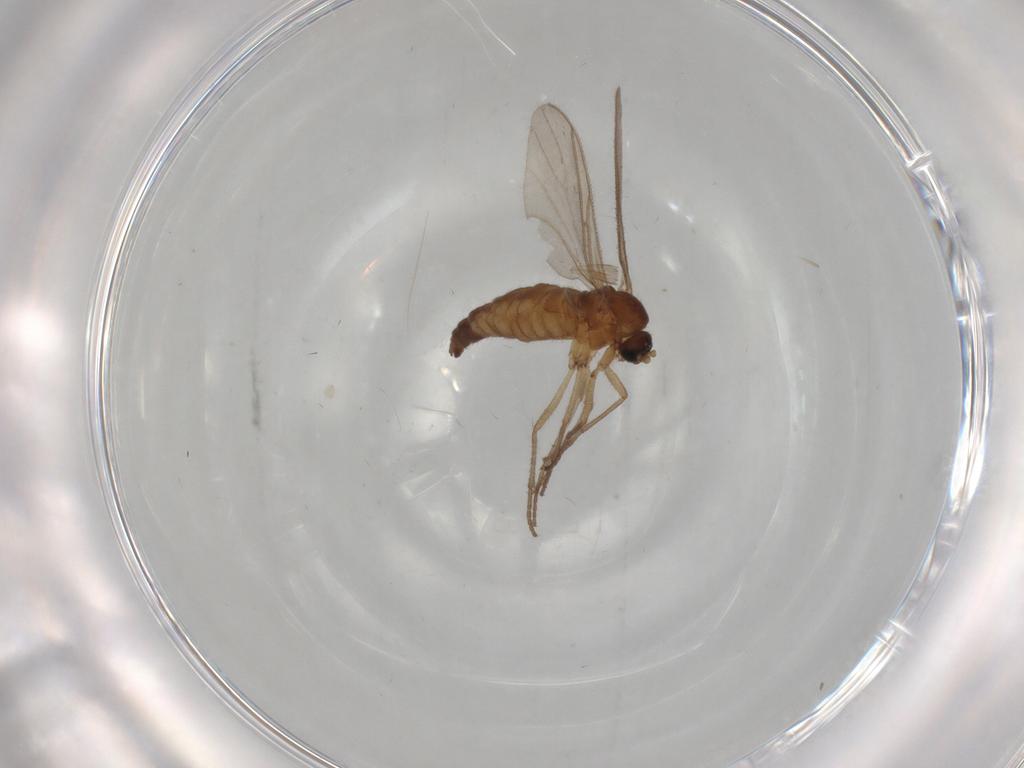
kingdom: Animalia
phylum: Arthropoda
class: Insecta
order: Diptera
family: Sciaridae
